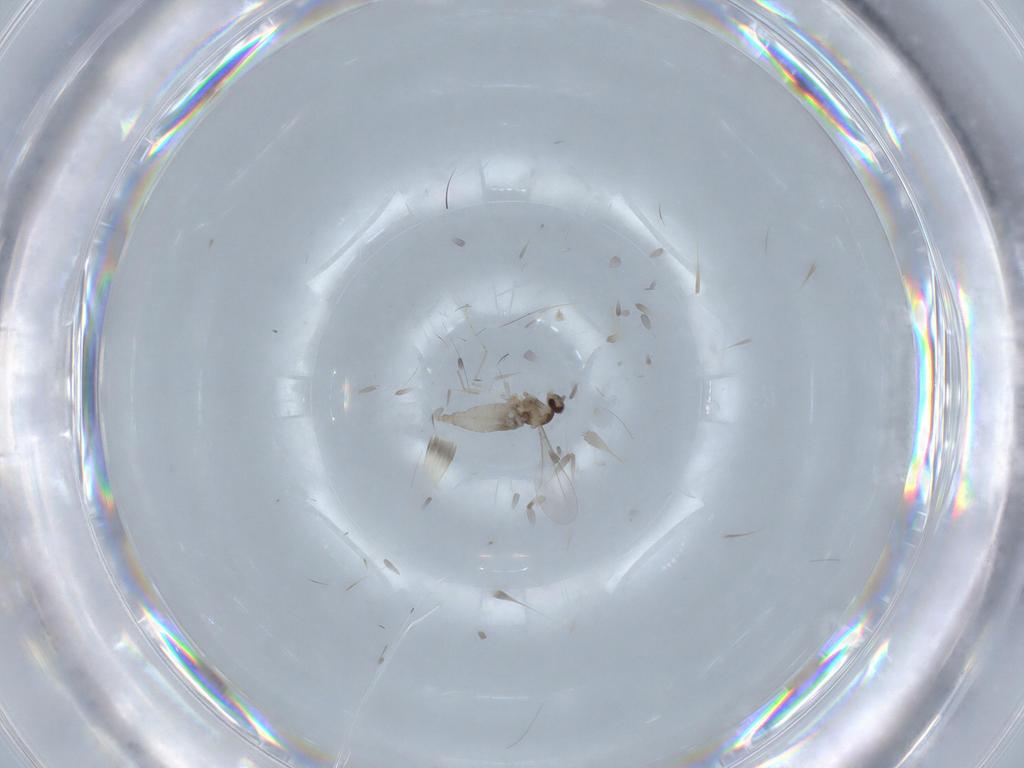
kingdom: Animalia
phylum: Arthropoda
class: Insecta
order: Diptera
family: Cecidomyiidae
